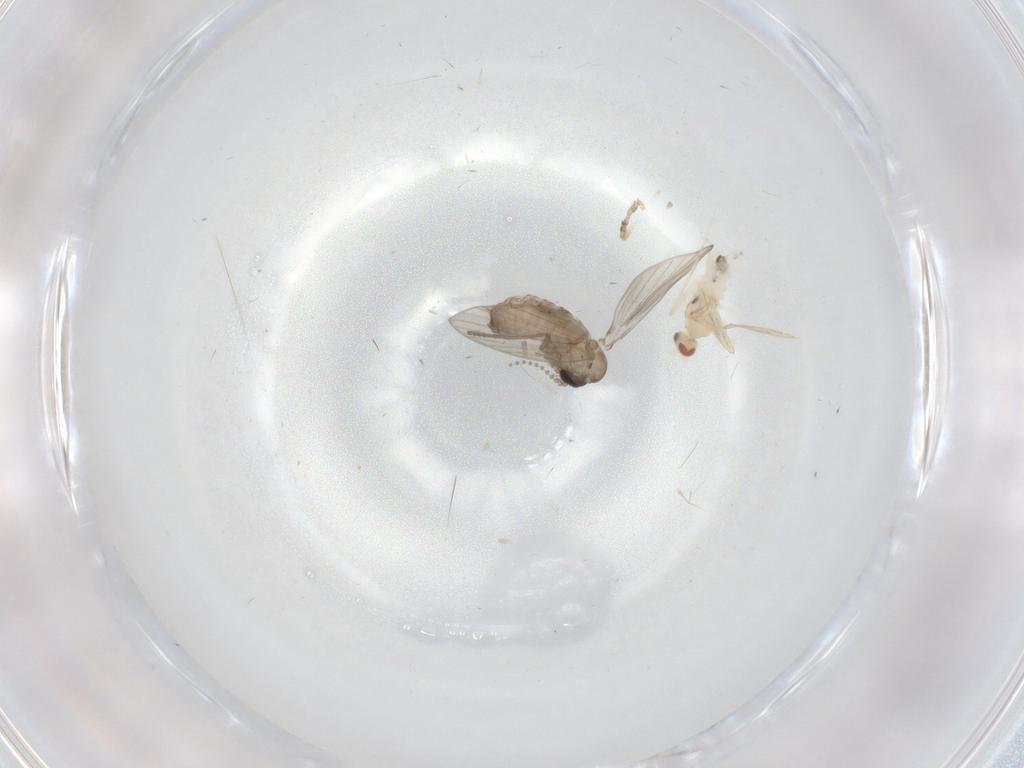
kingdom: Animalia
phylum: Arthropoda
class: Insecta
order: Diptera
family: Psychodidae
